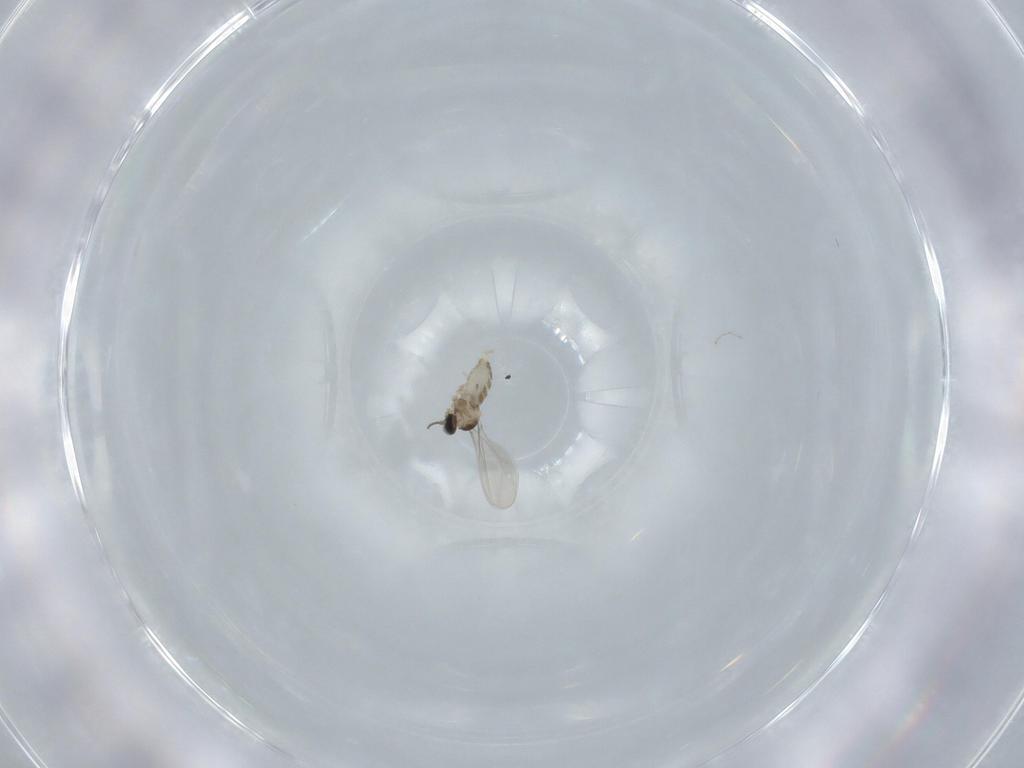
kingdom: Animalia
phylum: Arthropoda
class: Insecta
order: Diptera
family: Cecidomyiidae
